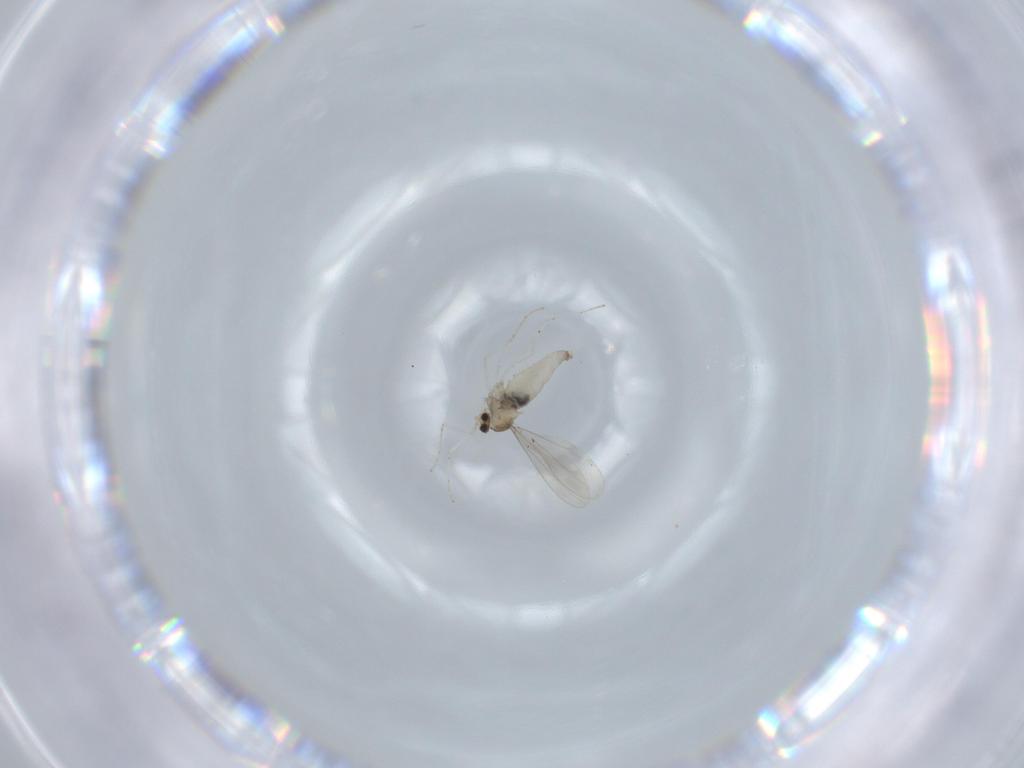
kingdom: Animalia
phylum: Arthropoda
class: Insecta
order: Diptera
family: Cecidomyiidae
